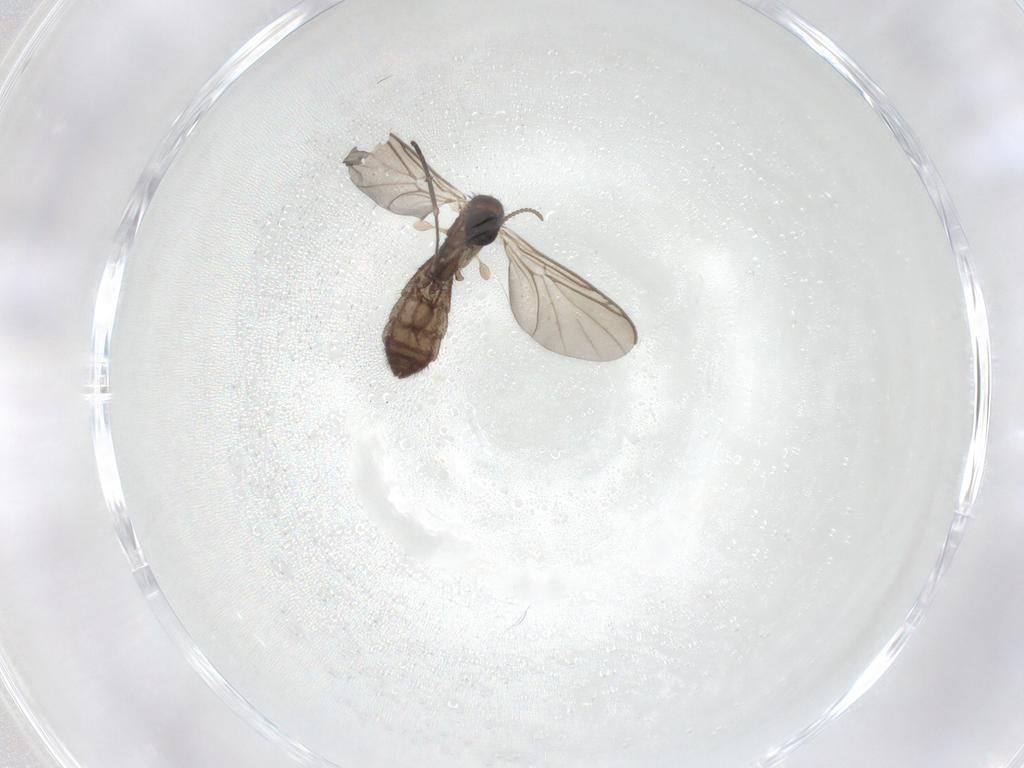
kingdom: Animalia
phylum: Arthropoda
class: Insecta
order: Diptera
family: Keroplatidae
